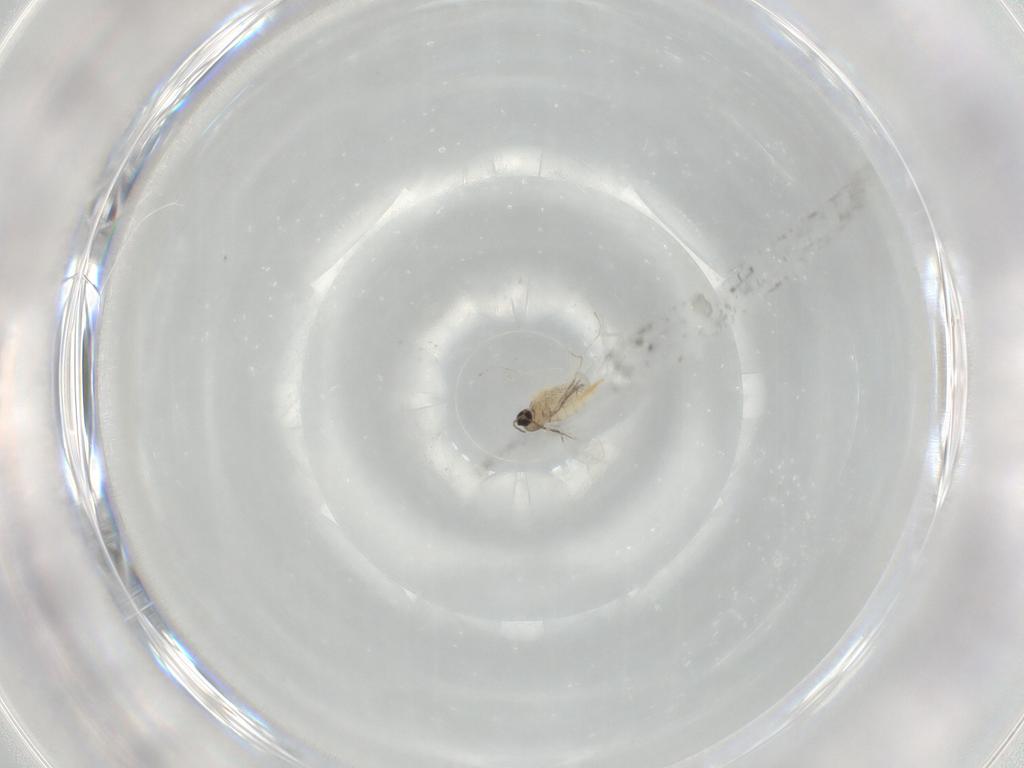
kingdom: Animalia
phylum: Arthropoda
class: Insecta
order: Diptera
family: Cecidomyiidae
